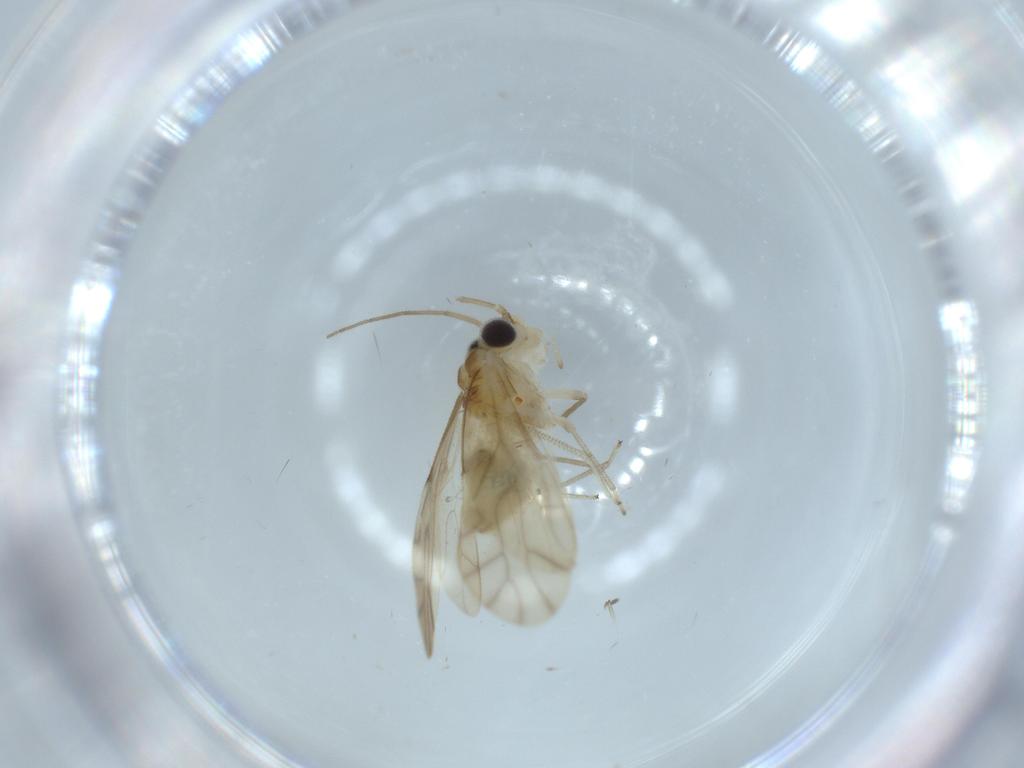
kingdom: Animalia
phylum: Arthropoda
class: Insecta
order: Psocodea
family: Caeciliusidae
